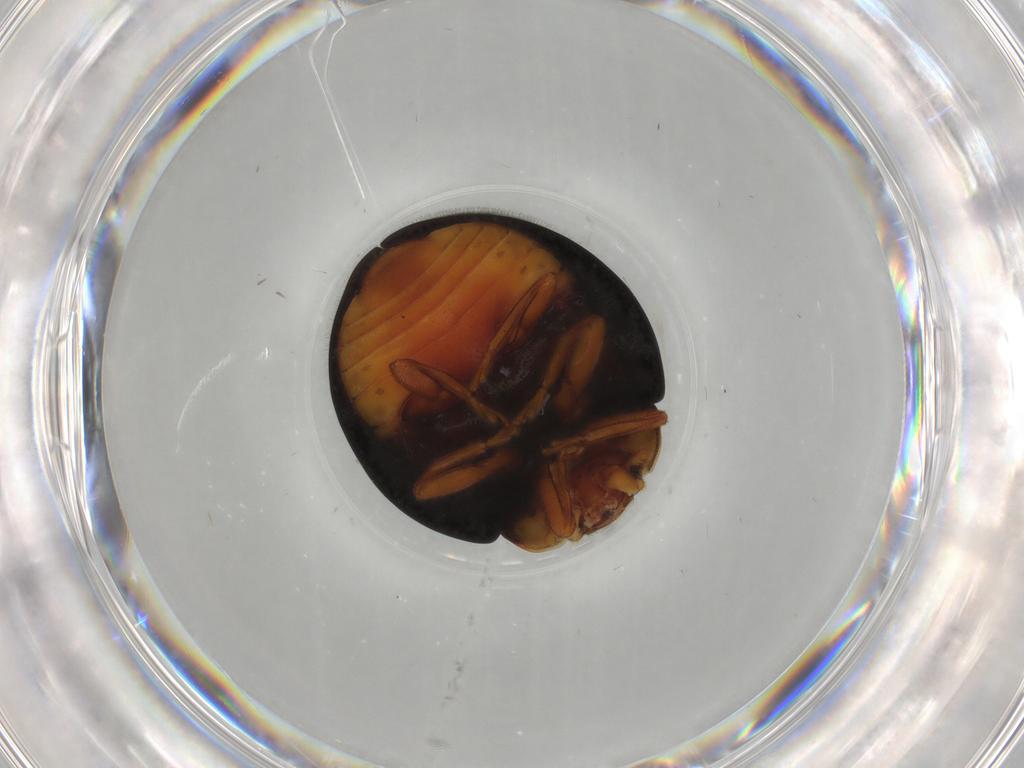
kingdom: Animalia
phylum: Arthropoda
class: Insecta
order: Coleoptera
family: Coccinellidae
